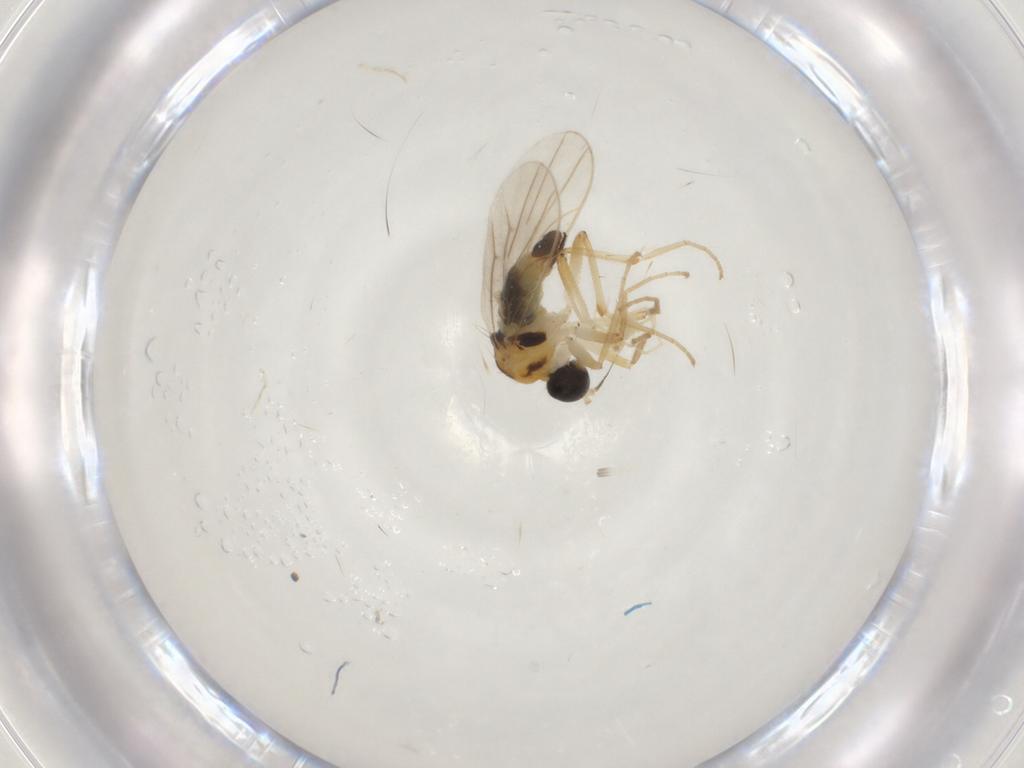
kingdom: Animalia
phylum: Arthropoda
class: Insecta
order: Diptera
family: Hybotidae
